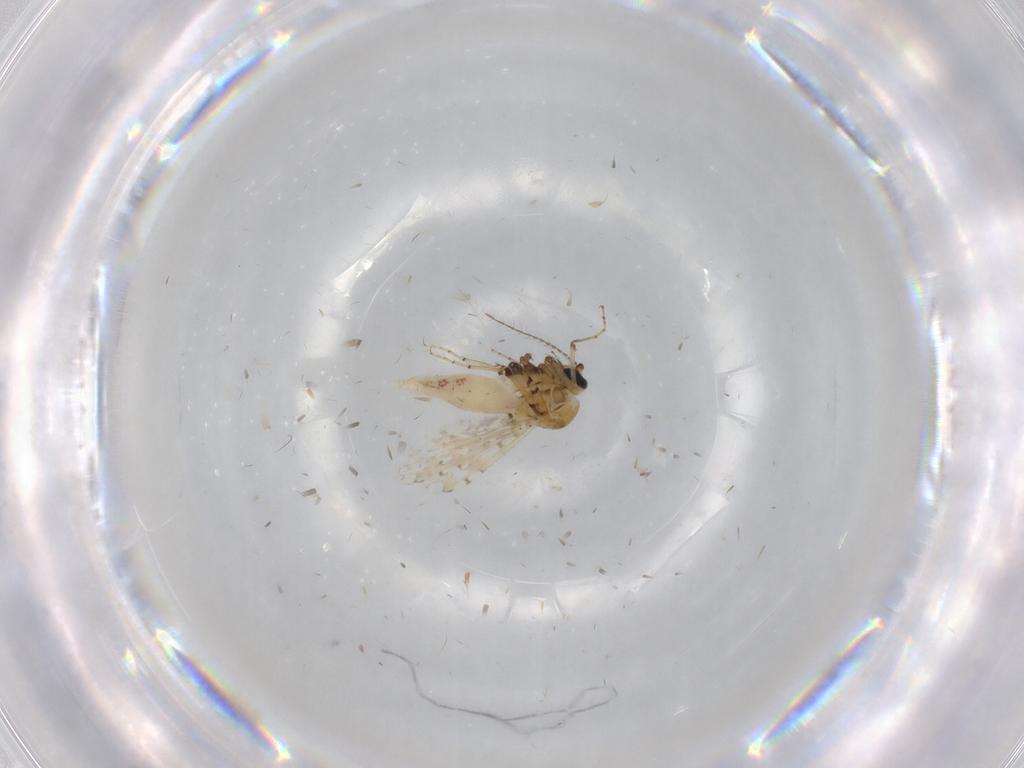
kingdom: Animalia
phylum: Arthropoda
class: Insecta
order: Diptera
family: Ceratopogonidae
